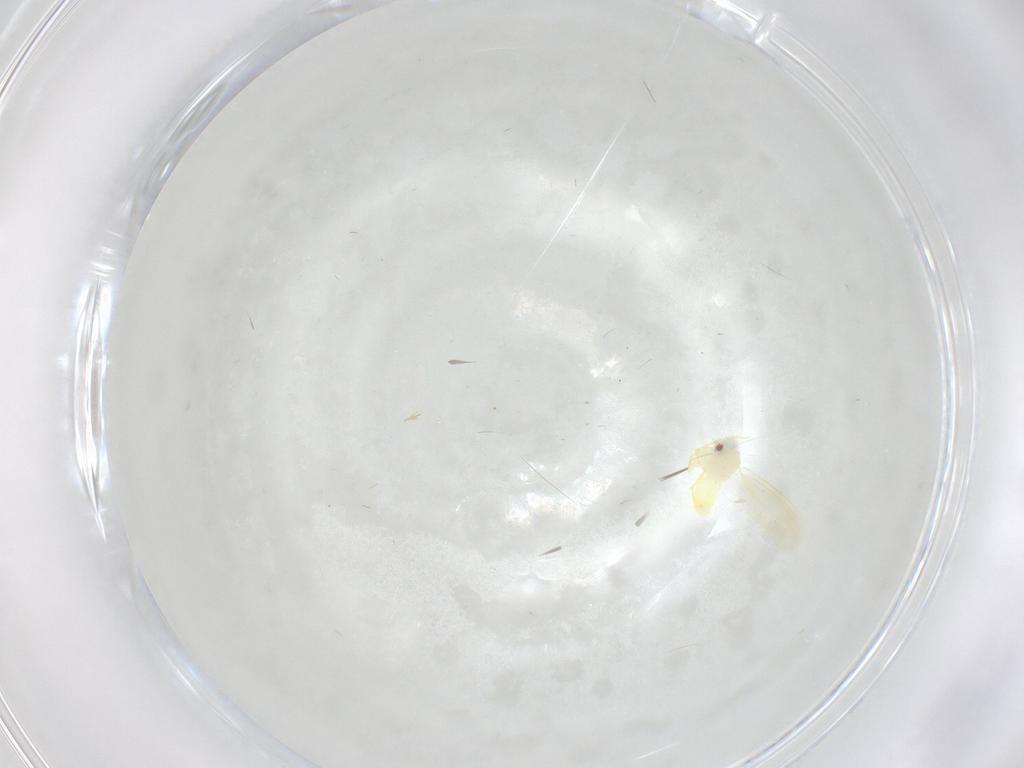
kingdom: Animalia
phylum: Arthropoda
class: Insecta
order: Hemiptera
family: Aleyrodidae
